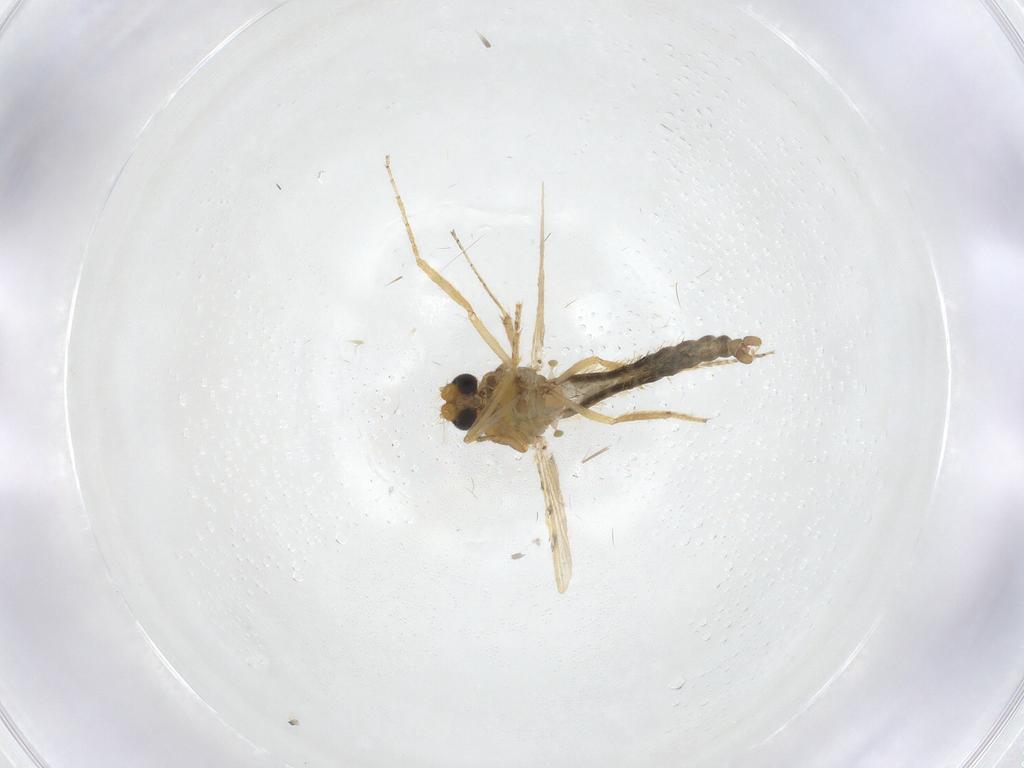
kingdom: Animalia
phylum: Arthropoda
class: Insecta
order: Diptera
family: Ceratopogonidae
